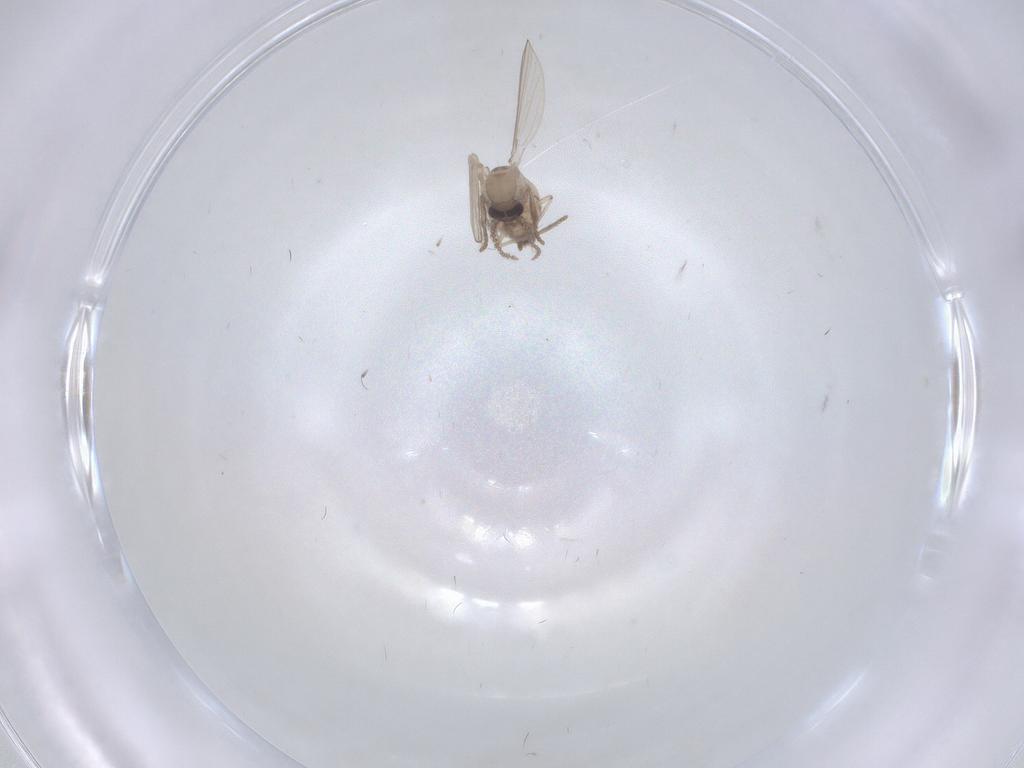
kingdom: Animalia
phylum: Arthropoda
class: Insecta
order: Diptera
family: Psychodidae
